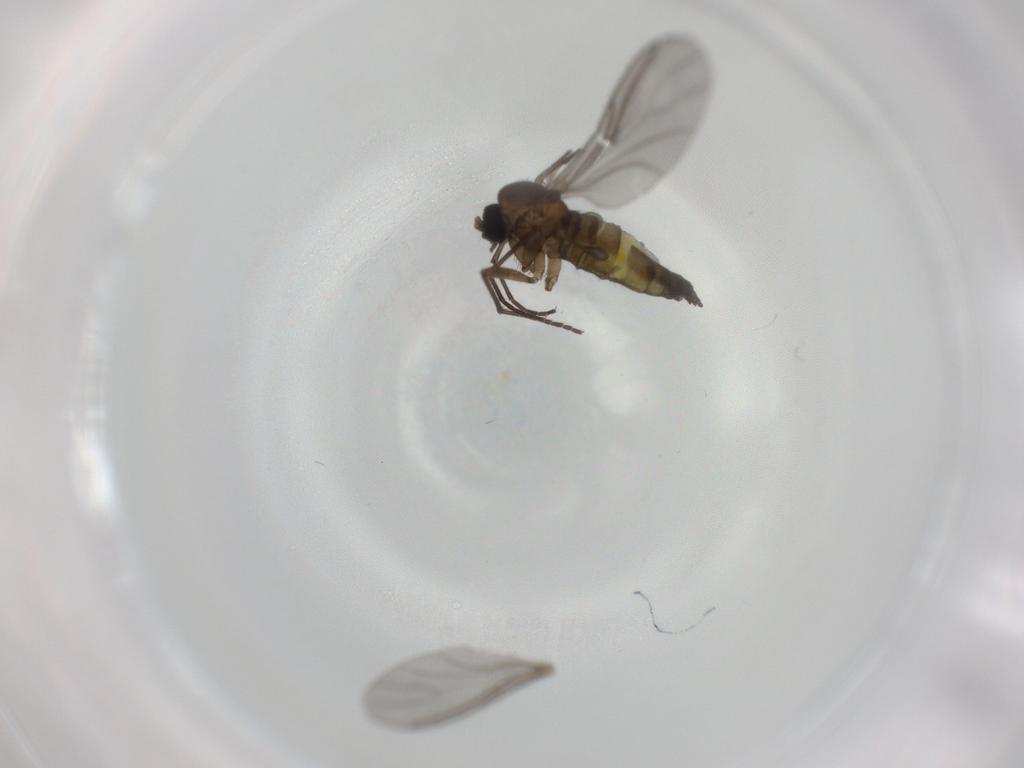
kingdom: Animalia
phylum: Arthropoda
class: Insecta
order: Diptera
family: Sciaridae
